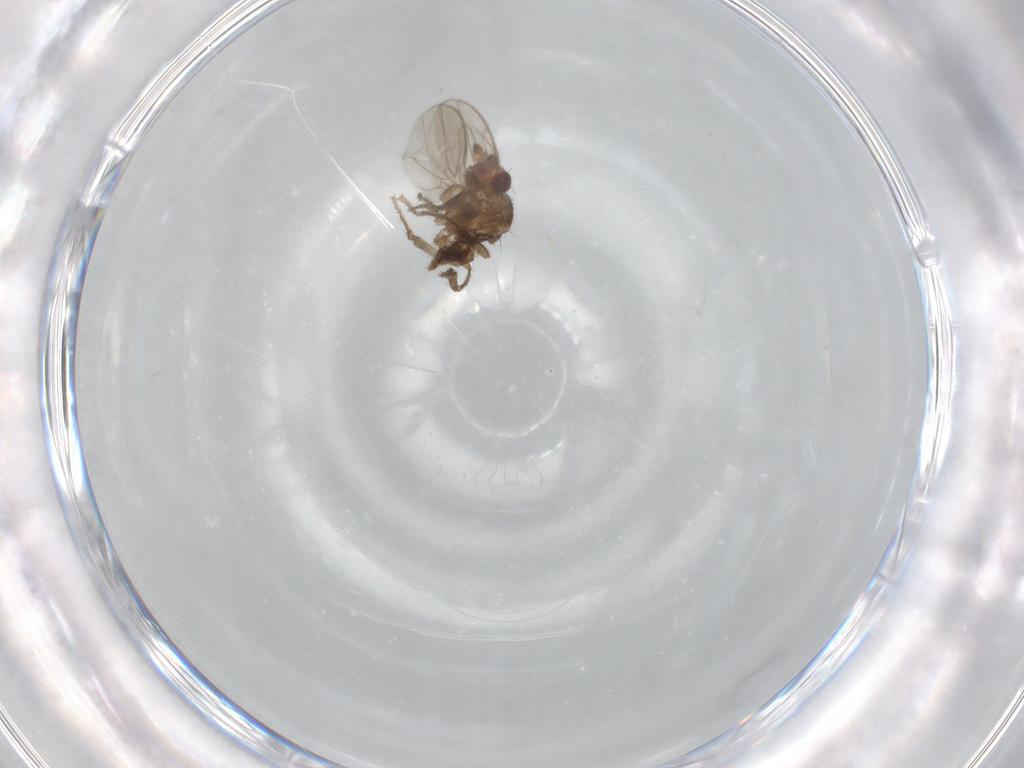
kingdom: Animalia
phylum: Arthropoda
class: Insecta
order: Diptera
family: Sphaeroceridae
